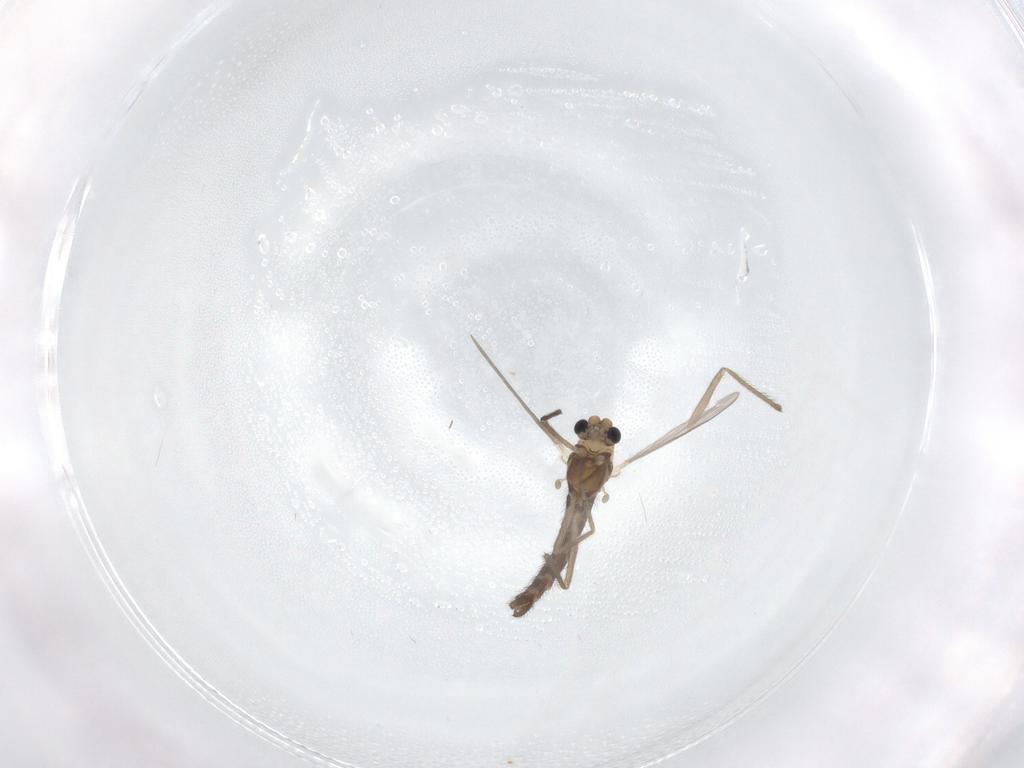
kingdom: Animalia
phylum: Arthropoda
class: Insecta
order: Diptera
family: Chironomidae
